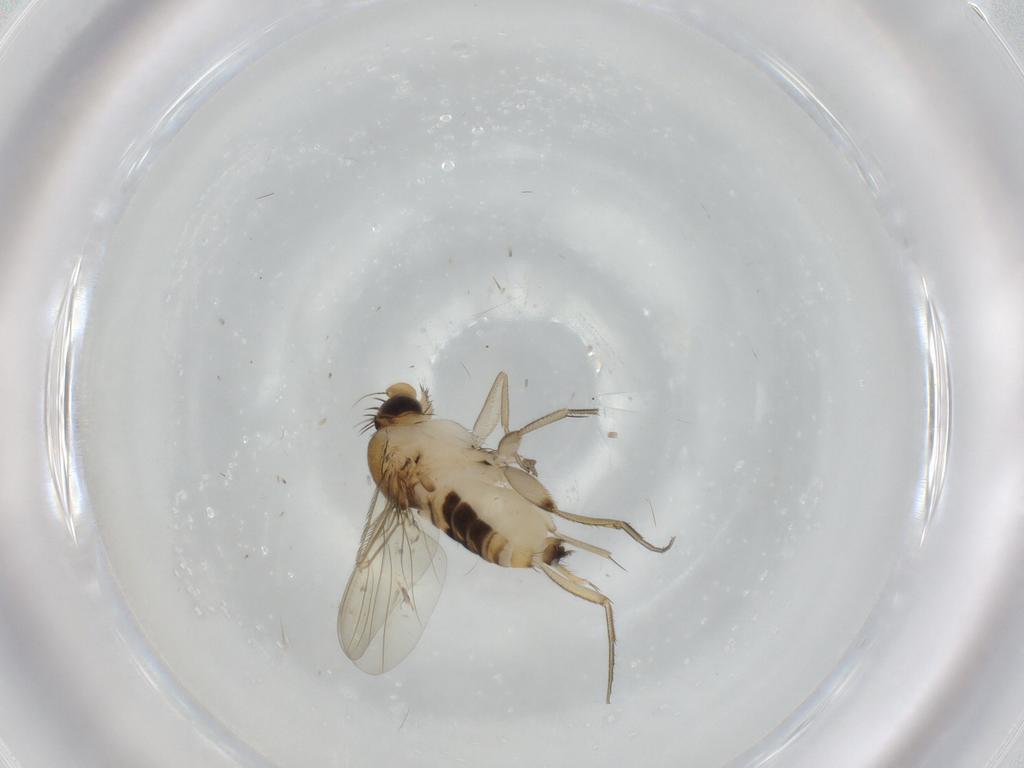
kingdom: Animalia
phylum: Arthropoda
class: Insecta
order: Diptera
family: Phoridae
